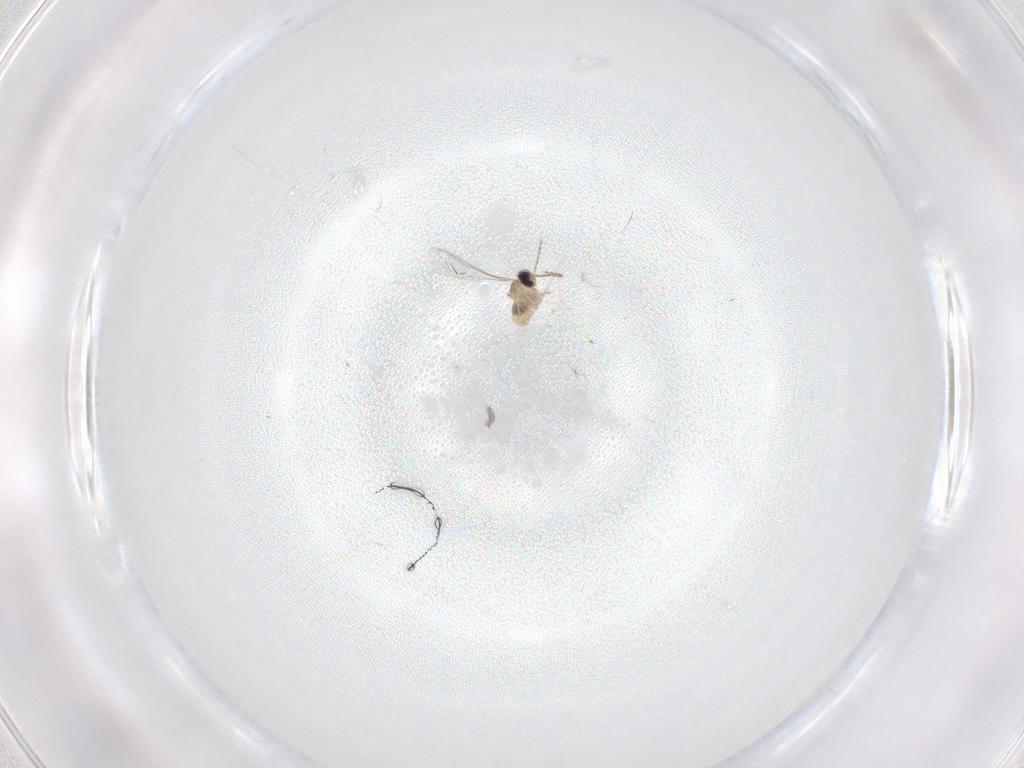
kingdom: Animalia
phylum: Arthropoda
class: Insecta
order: Diptera
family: Cecidomyiidae
